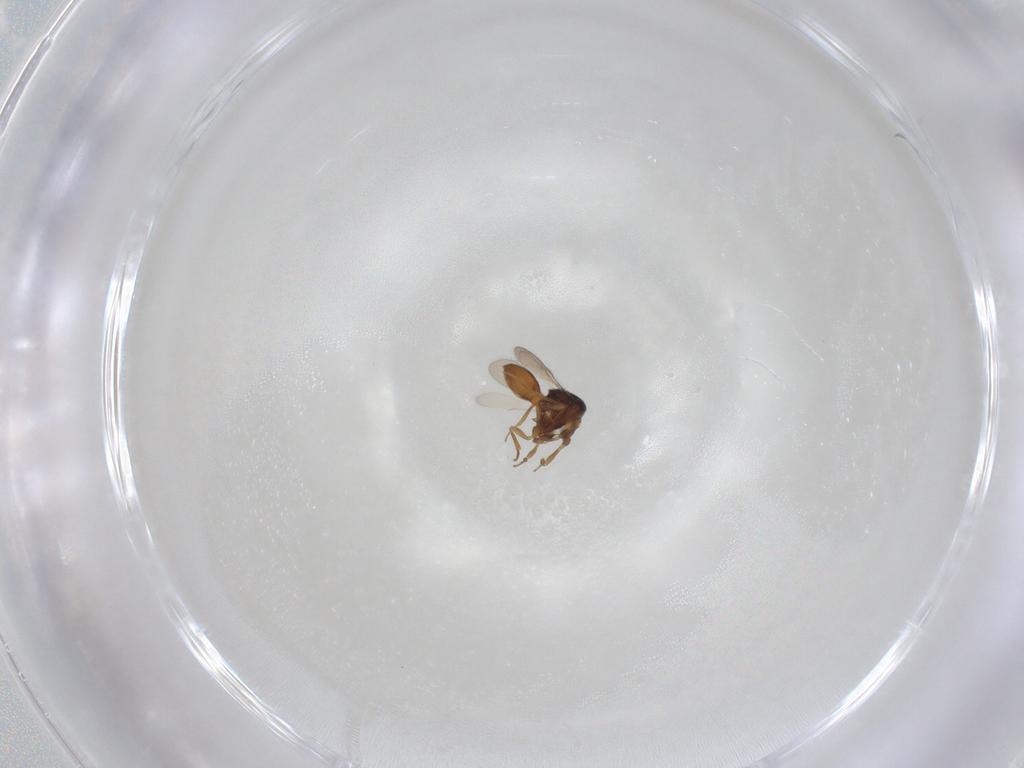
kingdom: Animalia
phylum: Arthropoda
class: Insecta
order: Hymenoptera
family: Scelionidae
